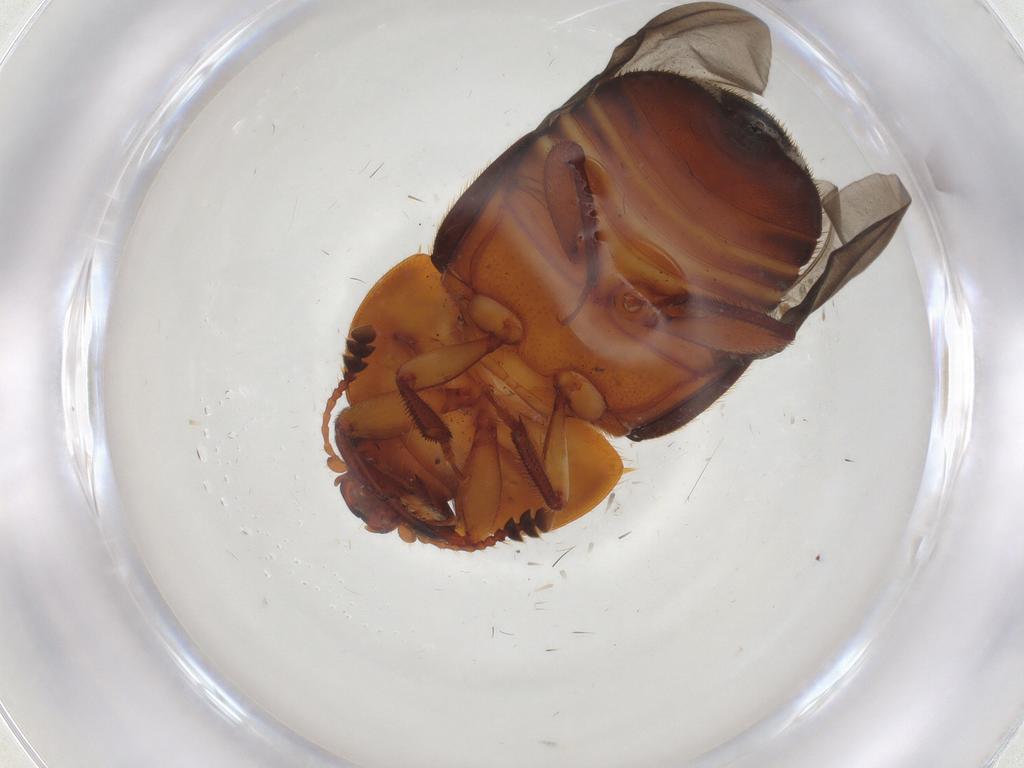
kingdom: Animalia
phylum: Arthropoda
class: Insecta
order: Coleoptera
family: Nitidulidae
